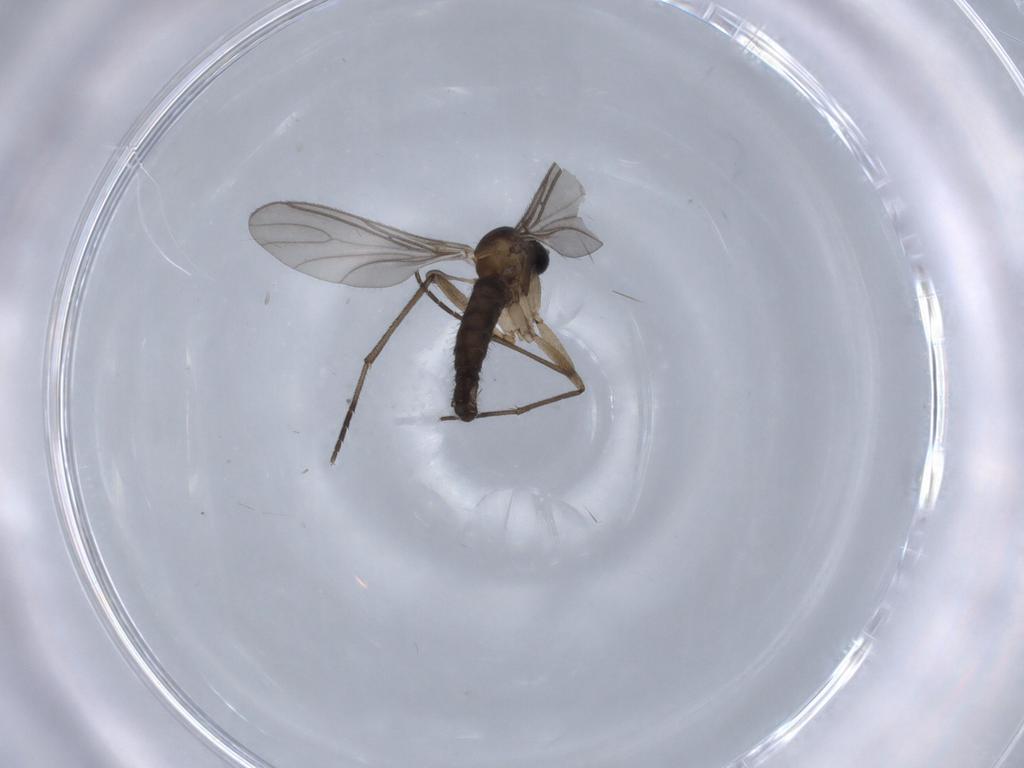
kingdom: Animalia
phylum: Arthropoda
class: Insecta
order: Diptera
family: Sciaridae
